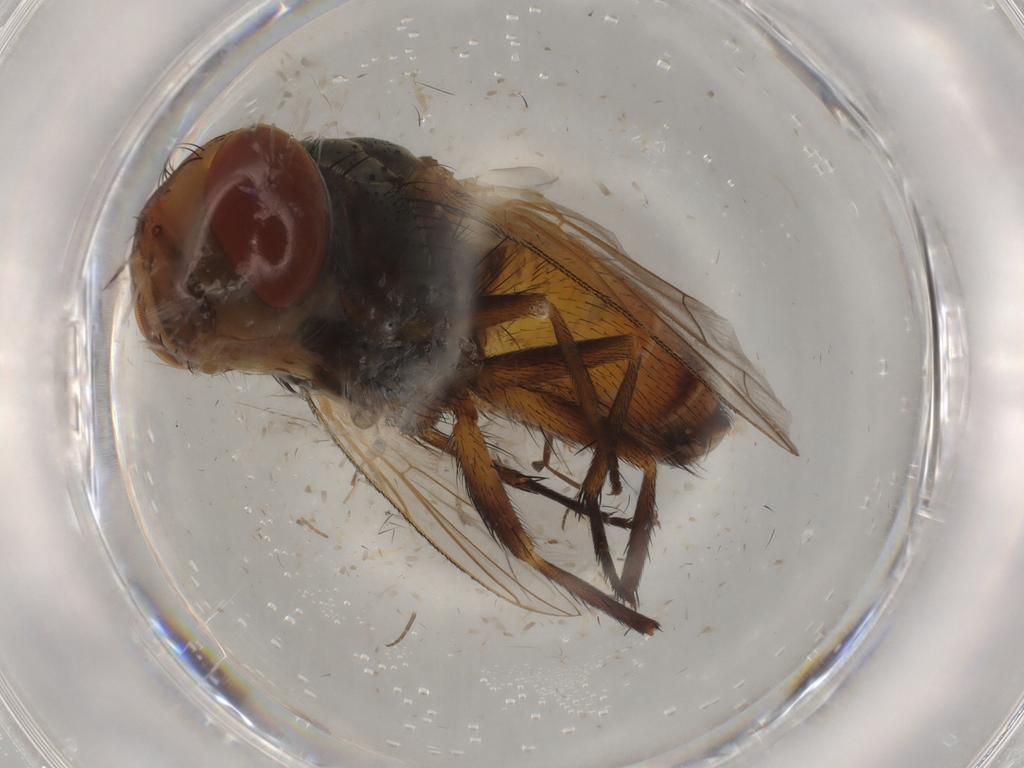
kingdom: Animalia
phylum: Arthropoda
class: Insecta
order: Diptera
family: Sarcophagidae
